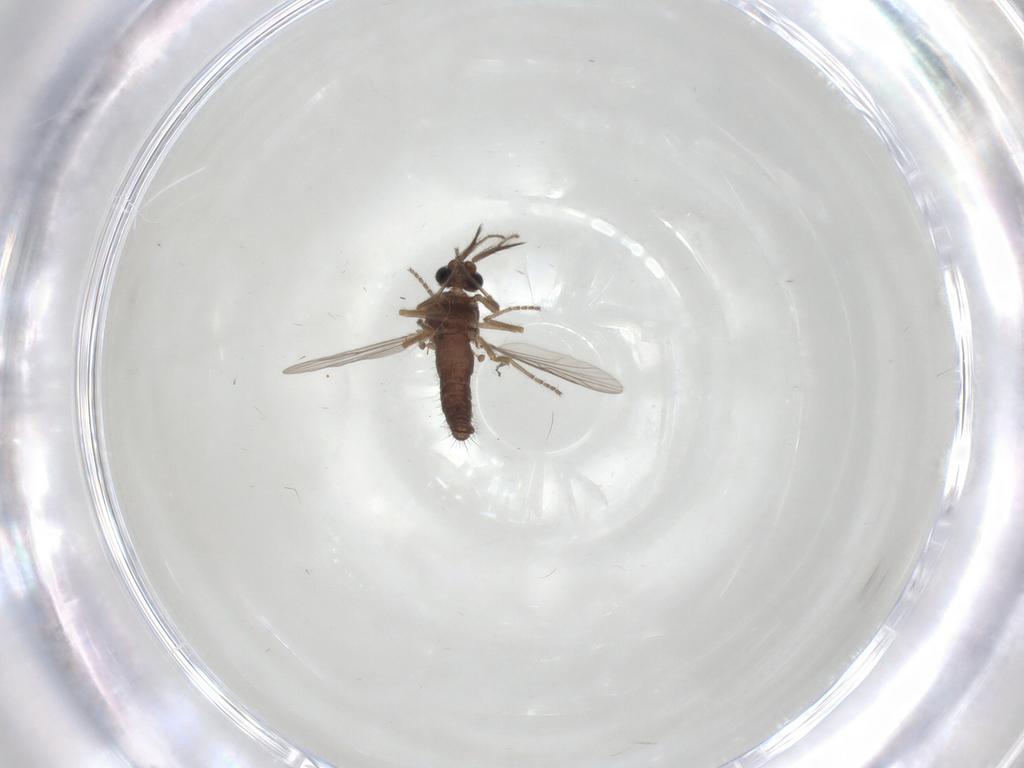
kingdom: Animalia
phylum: Arthropoda
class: Insecta
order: Diptera
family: Ceratopogonidae
